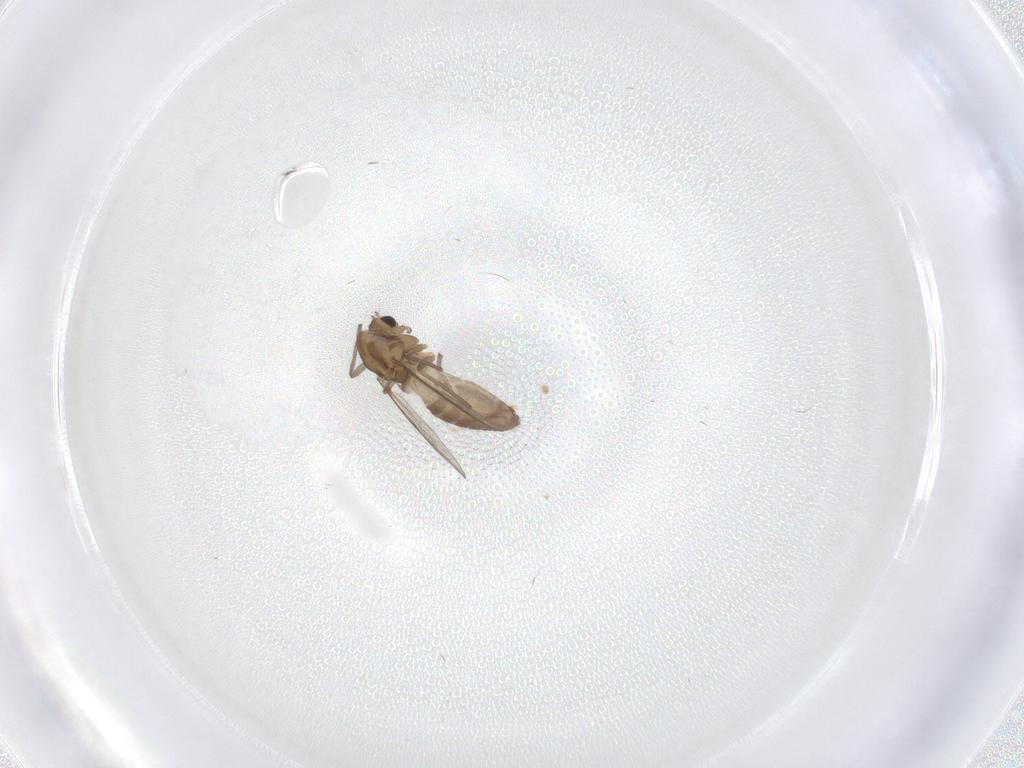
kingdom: Animalia
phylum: Arthropoda
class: Insecta
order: Diptera
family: Chironomidae
